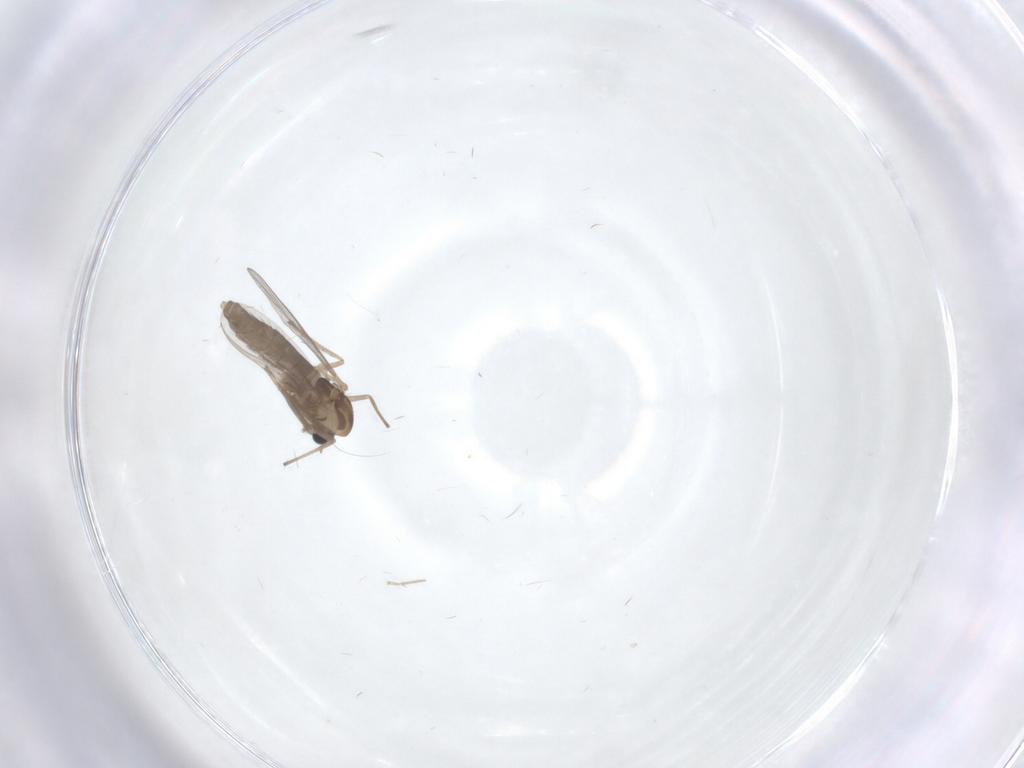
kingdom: Animalia
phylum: Arthropoda
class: Insecta
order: Diptera
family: Chironomidae
